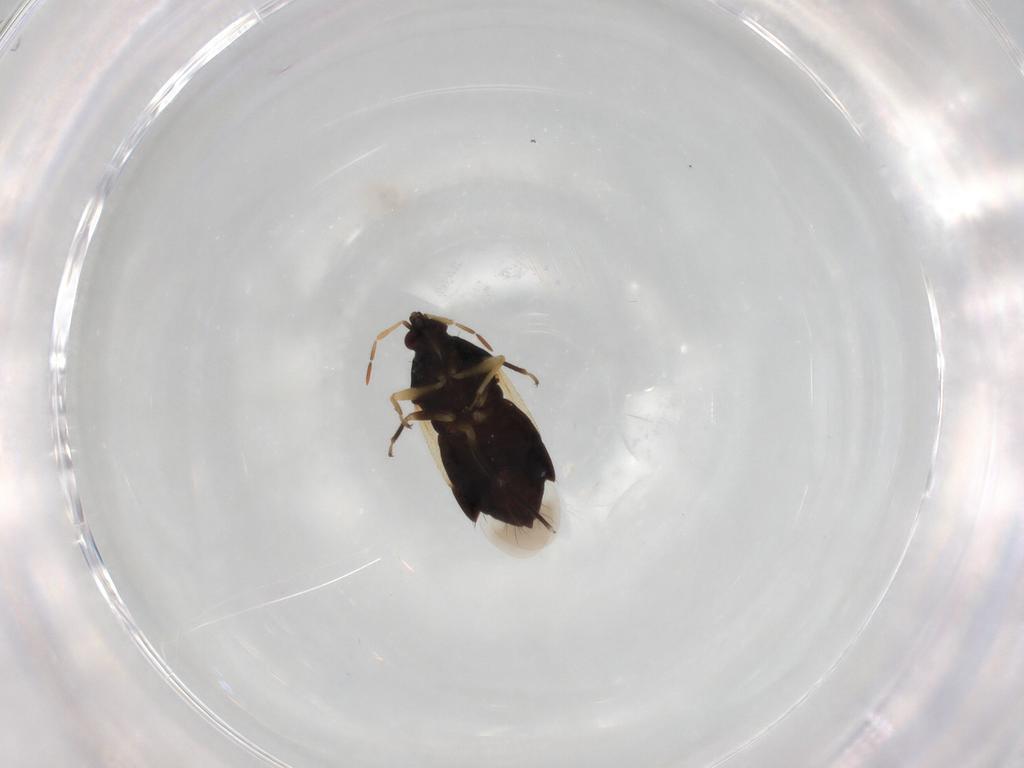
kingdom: Animalia
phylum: Arthropoda
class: Insecta
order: Hemiptera
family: Anthocoridae
